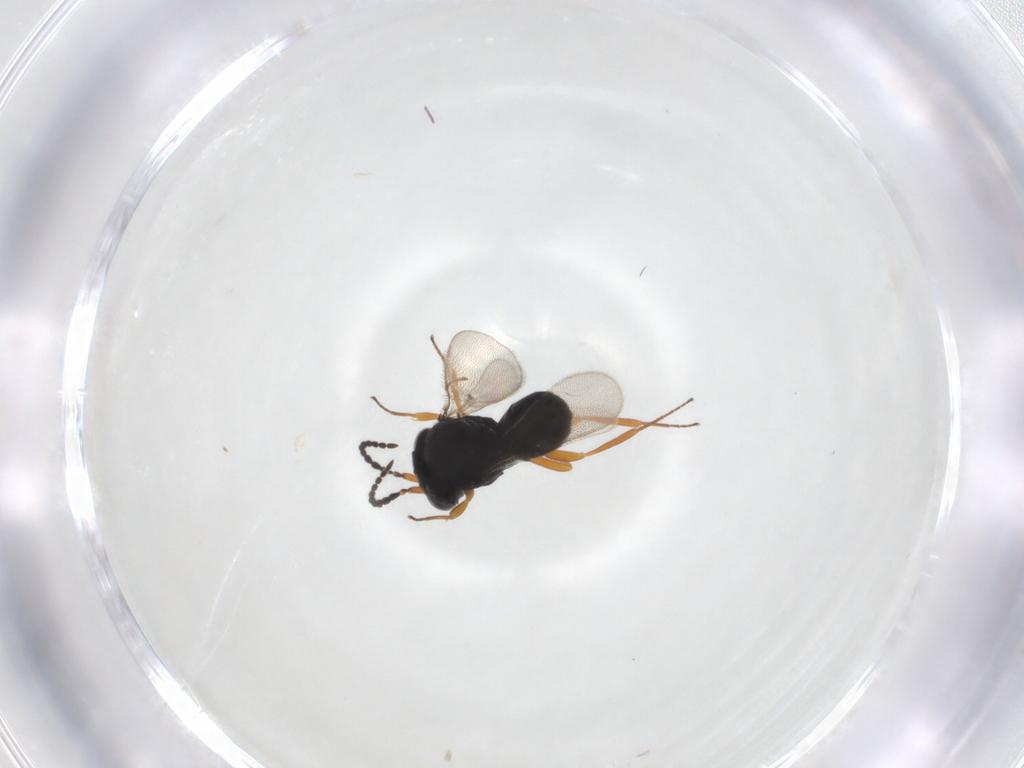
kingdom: Animalia
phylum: Arthropoda
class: Insecta
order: Hymenoptera
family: Scelionidae
